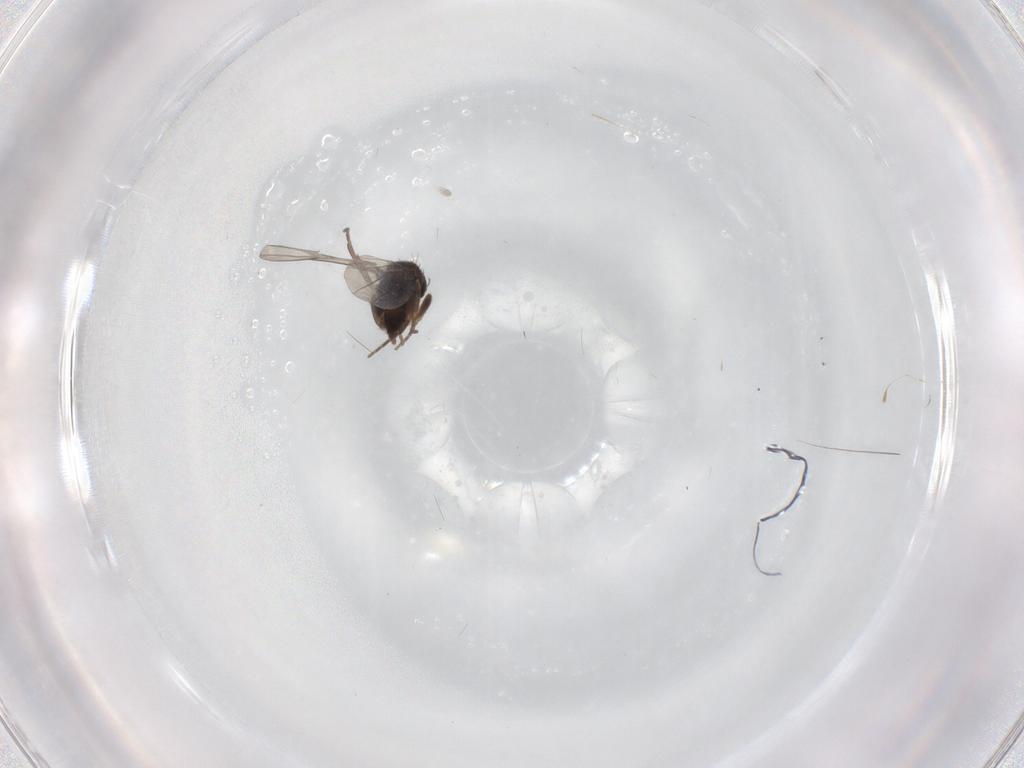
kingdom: Animalia
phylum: Arthropoda
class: Insecta
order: Diptera
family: Phoridae
